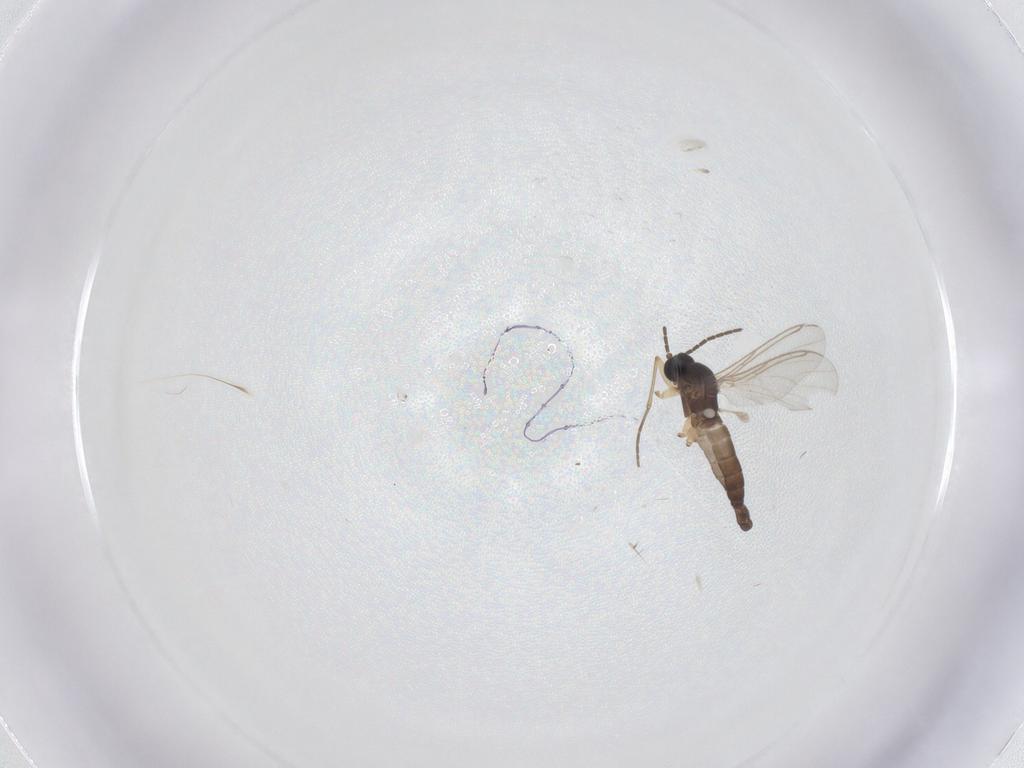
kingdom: Animalia
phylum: Arthropoda
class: Insecta
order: Diptera
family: Sciaridae
